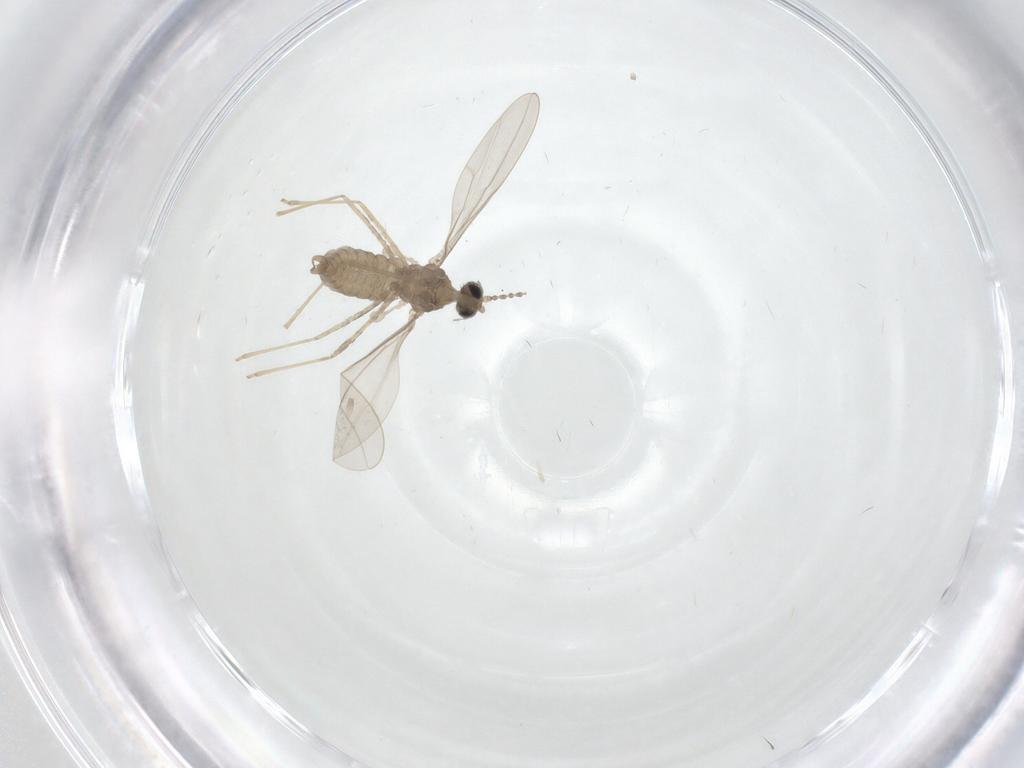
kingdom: Animalia
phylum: Arthropoda
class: Insecta
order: Diptera
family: Cecidomyiidae
